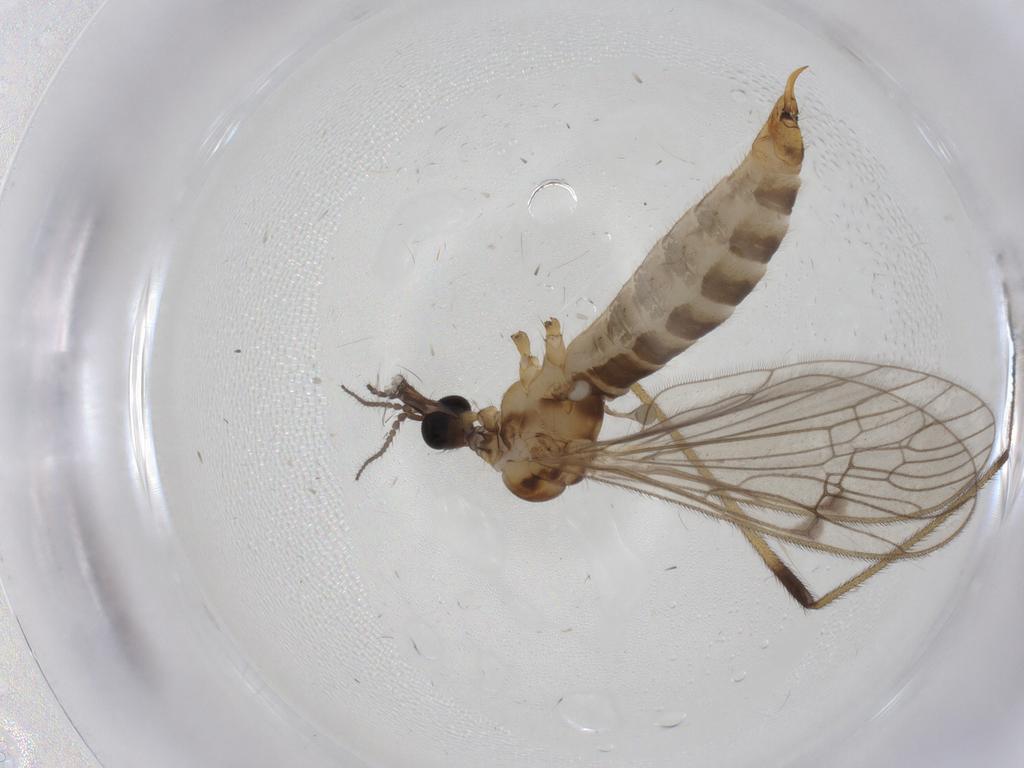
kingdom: Animalia
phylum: Arthropoda
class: Insecta
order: Diptera
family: Limoniidae
